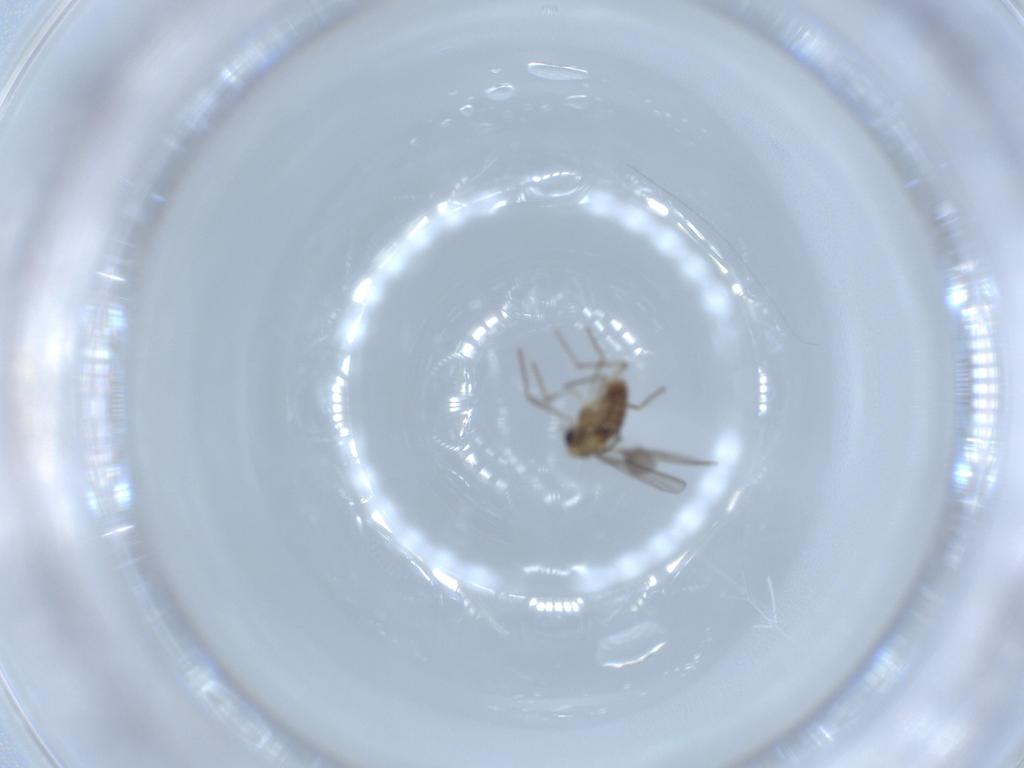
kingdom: Animalia
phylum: Arthropoda
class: Insecta
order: Diptera
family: Chironomidae
